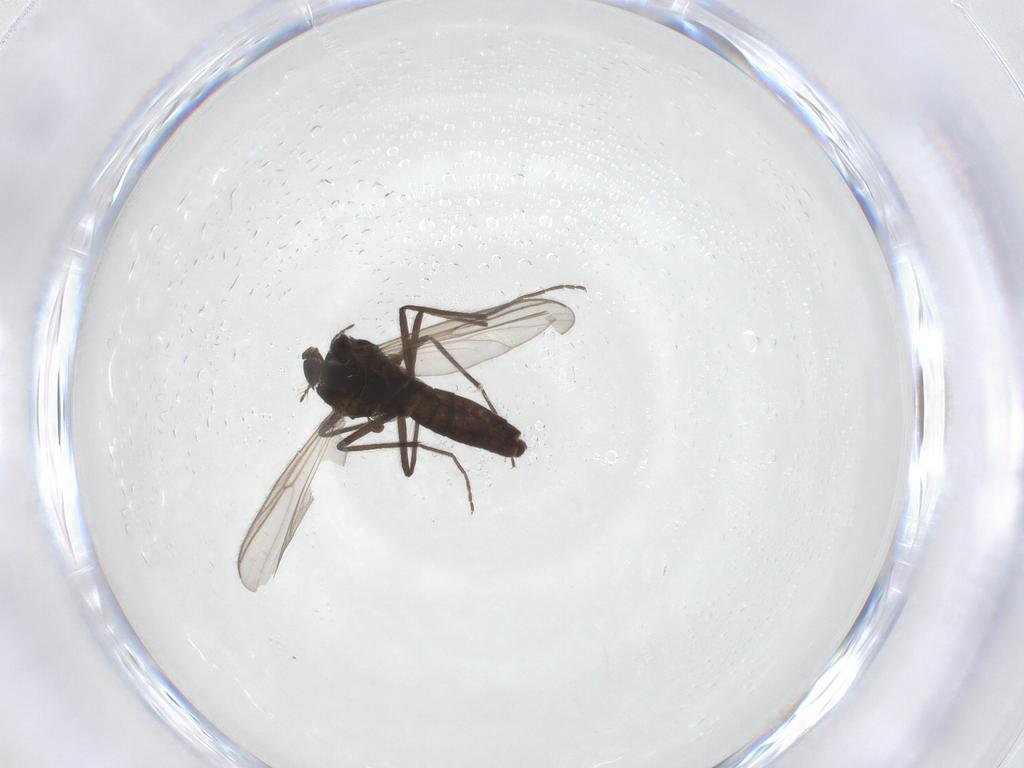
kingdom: Animalia
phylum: Arthropoda
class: Insecta
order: Diptera
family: Chironomidae
